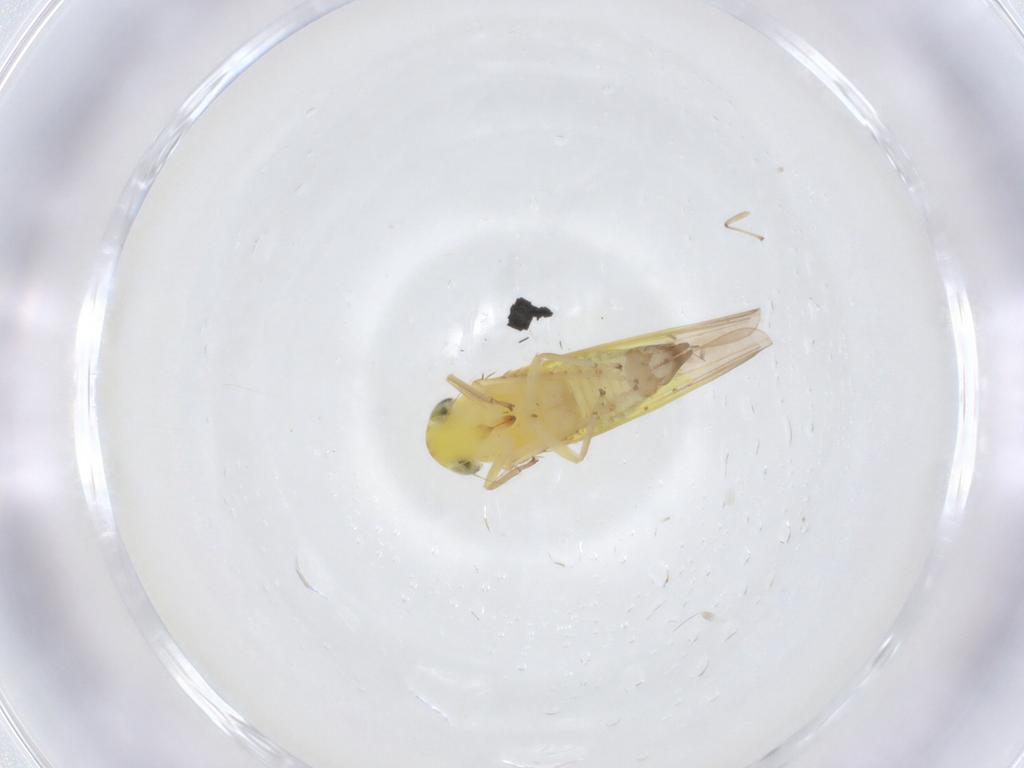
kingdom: Animalia
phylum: Arthropoda
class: Insecta
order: Hemiptera
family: Cicadellidae
